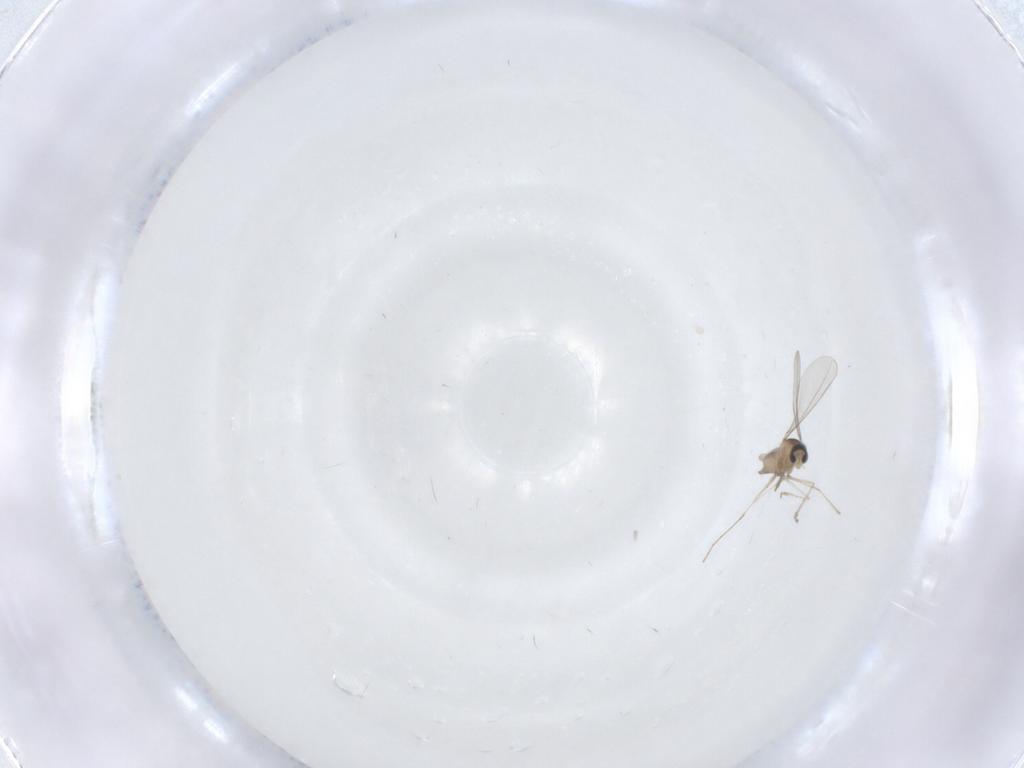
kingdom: Animalia
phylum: Arthropoda
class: Insecta
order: Diptera
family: Cecidomyiidae
